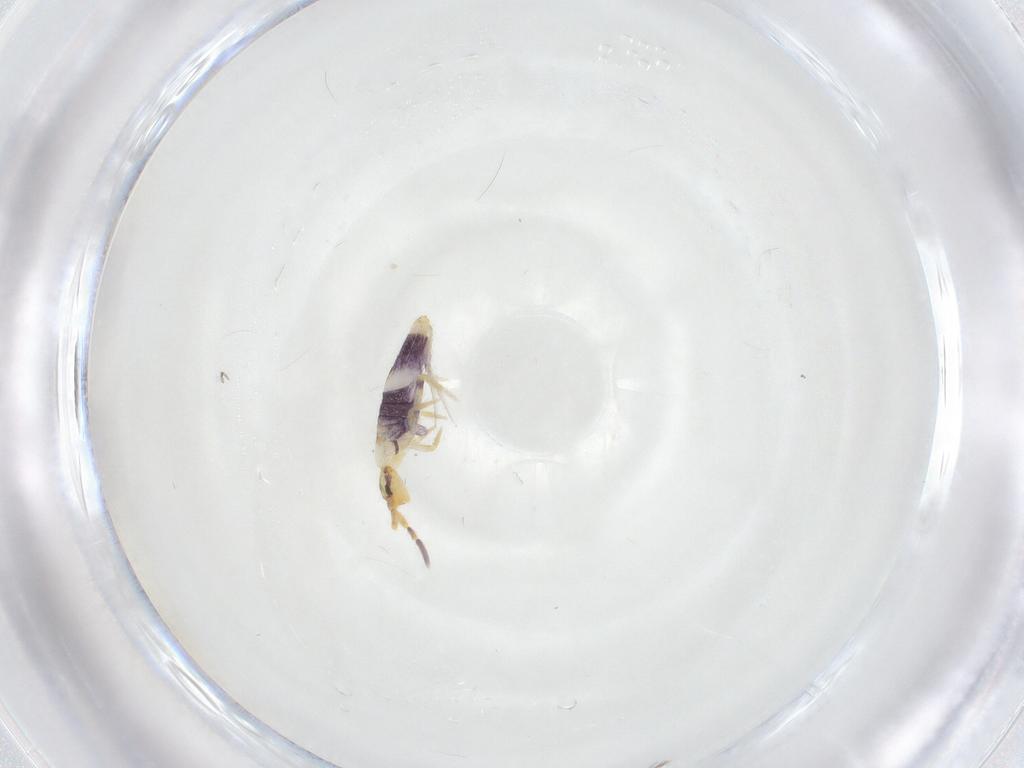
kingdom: Animalia
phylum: Arthropoda
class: Collembola
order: Entomobryomorpha
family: Entomobryidae
